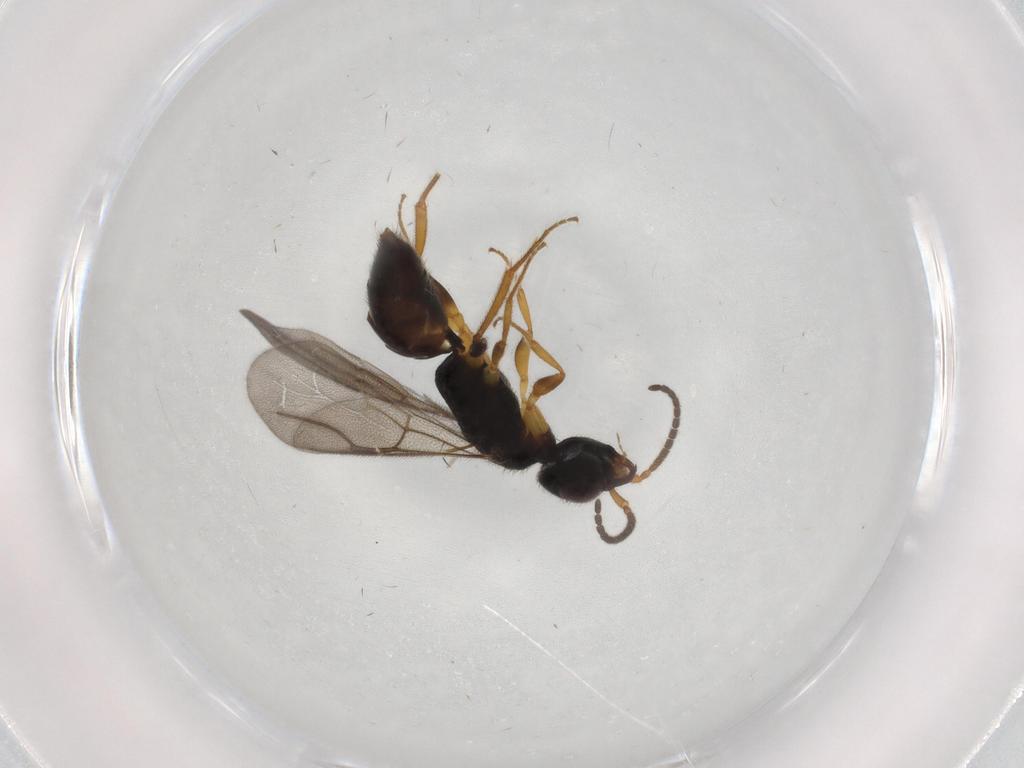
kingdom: Animalia
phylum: Arthropoda
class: Insecta
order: Hymenoptera
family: Bethylidae
